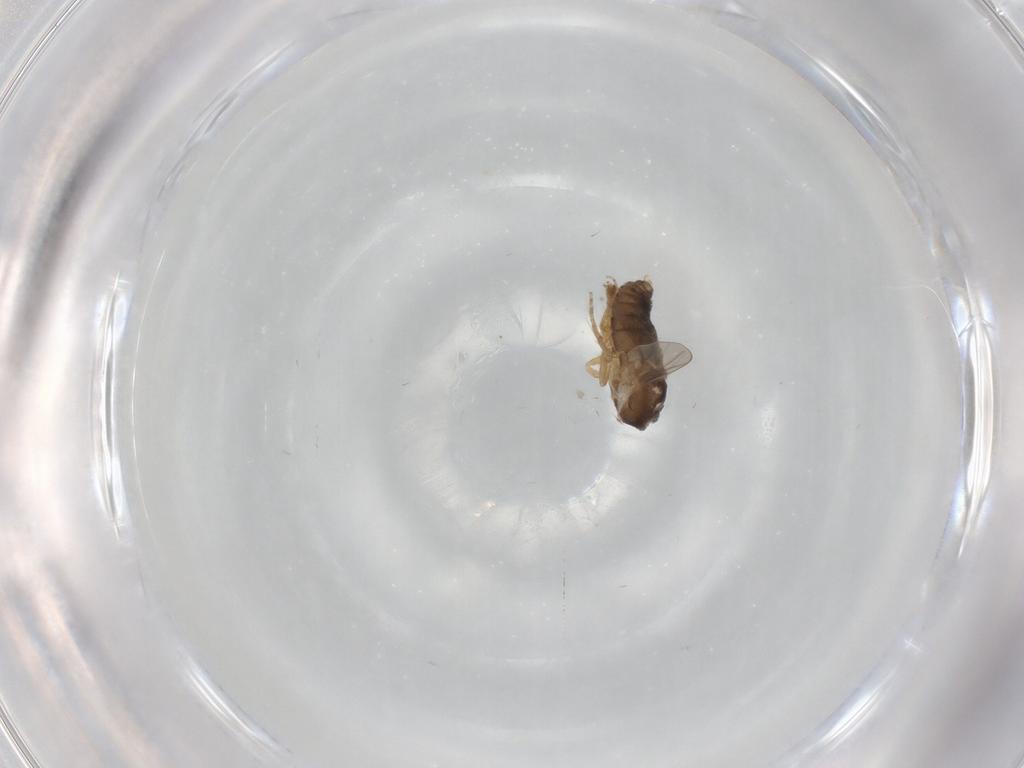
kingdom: Animalia
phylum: Arthropoda
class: Insecta
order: Diptera
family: Ceratopogonidae
